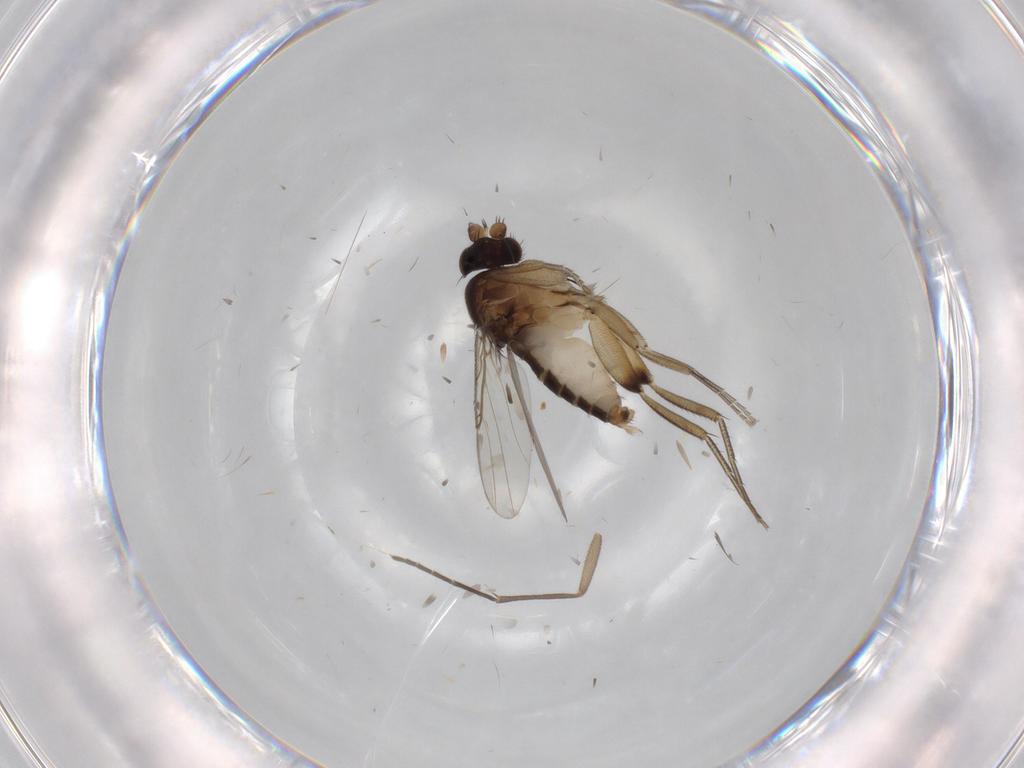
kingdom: Animalia
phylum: Arthropoda
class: Insecta
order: Diptera
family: Phoridae
